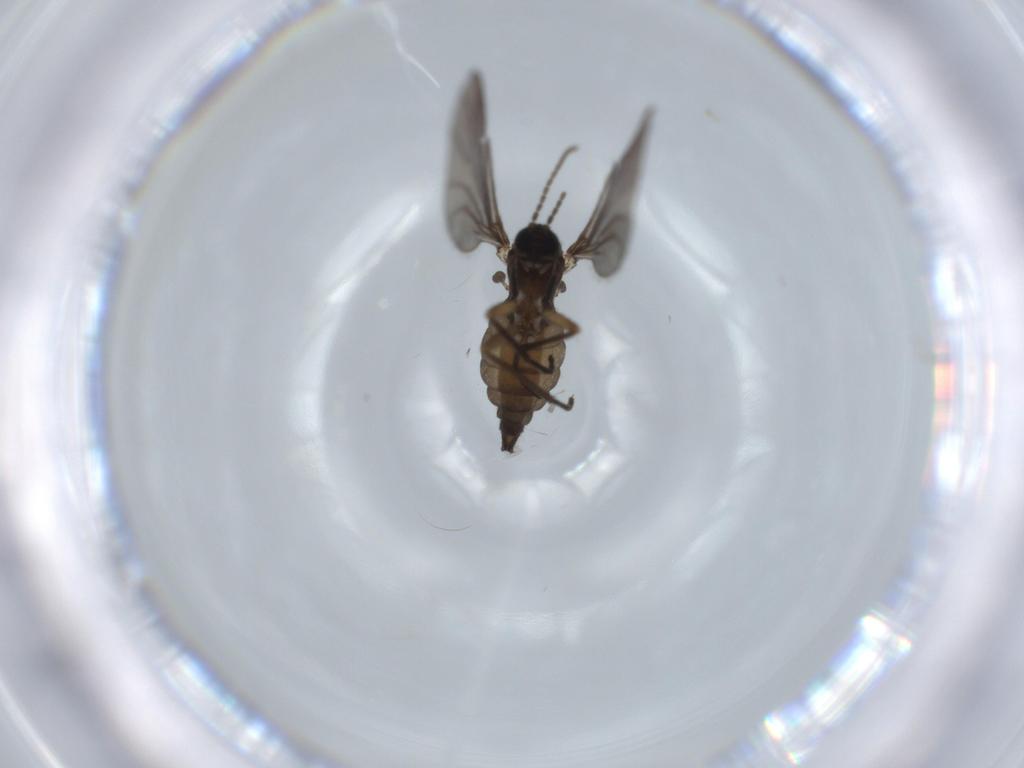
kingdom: Animalia
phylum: Arthropoda
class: Insecta
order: Diptera
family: Sciaridae
